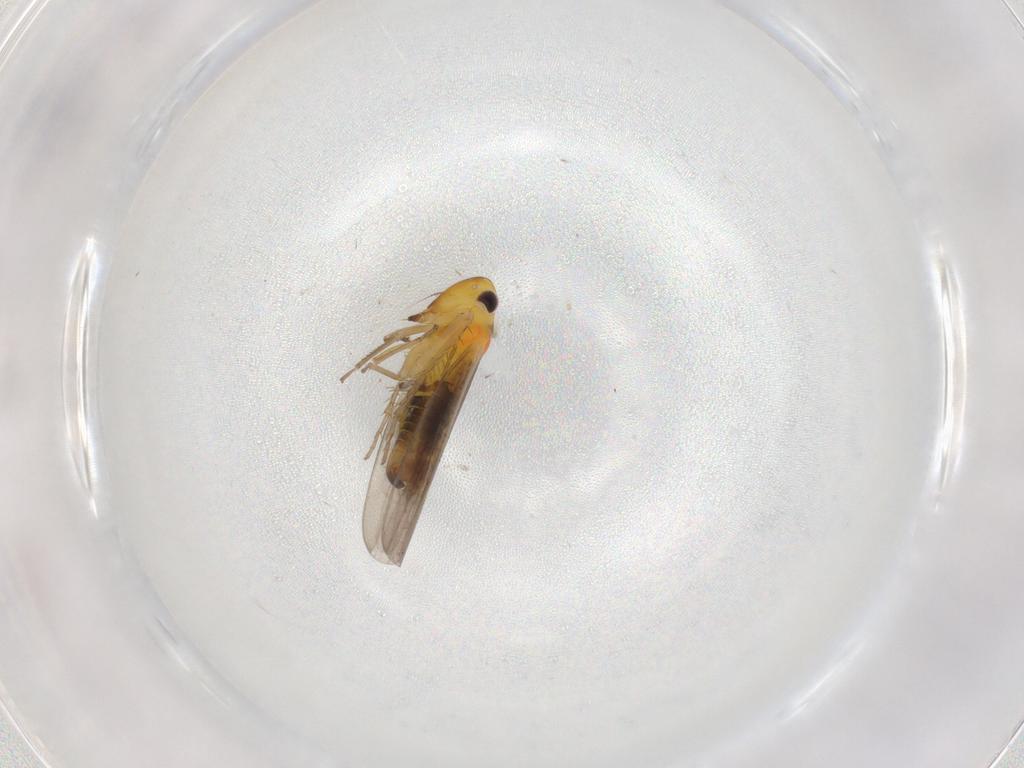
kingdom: Animalia
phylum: Arthropoda
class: Insecta
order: Hemiptera
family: Cicadellidae
